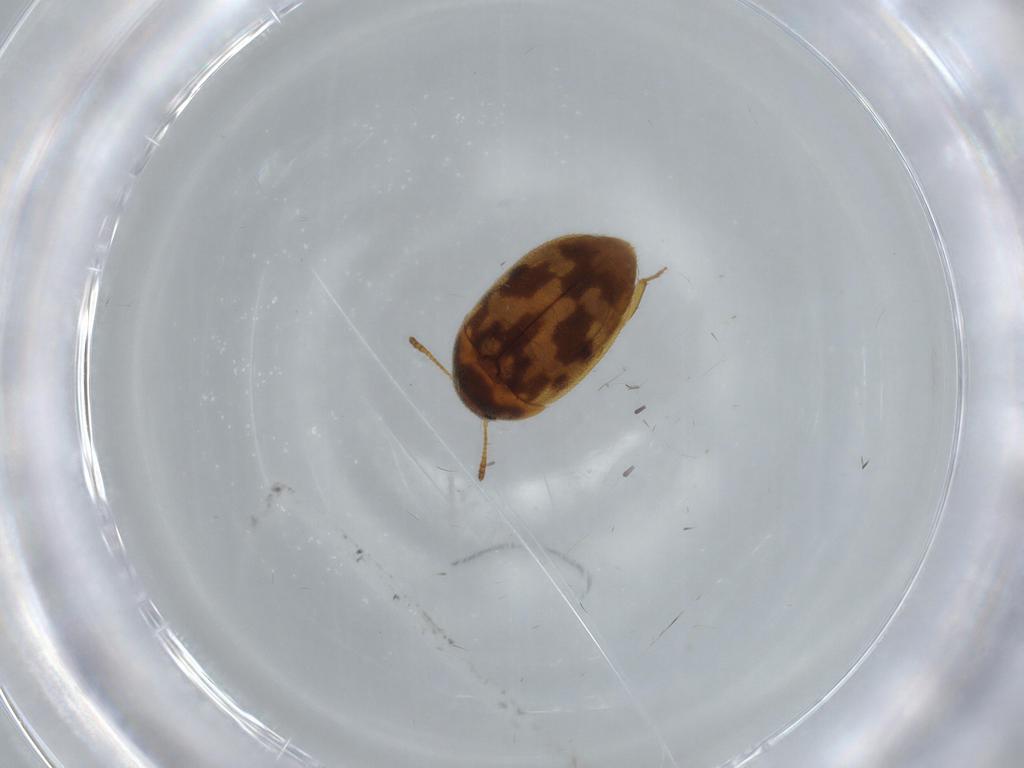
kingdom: Animalia
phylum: Arthropoda
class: Insecta
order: Coleoptera
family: Mycetophagidae
